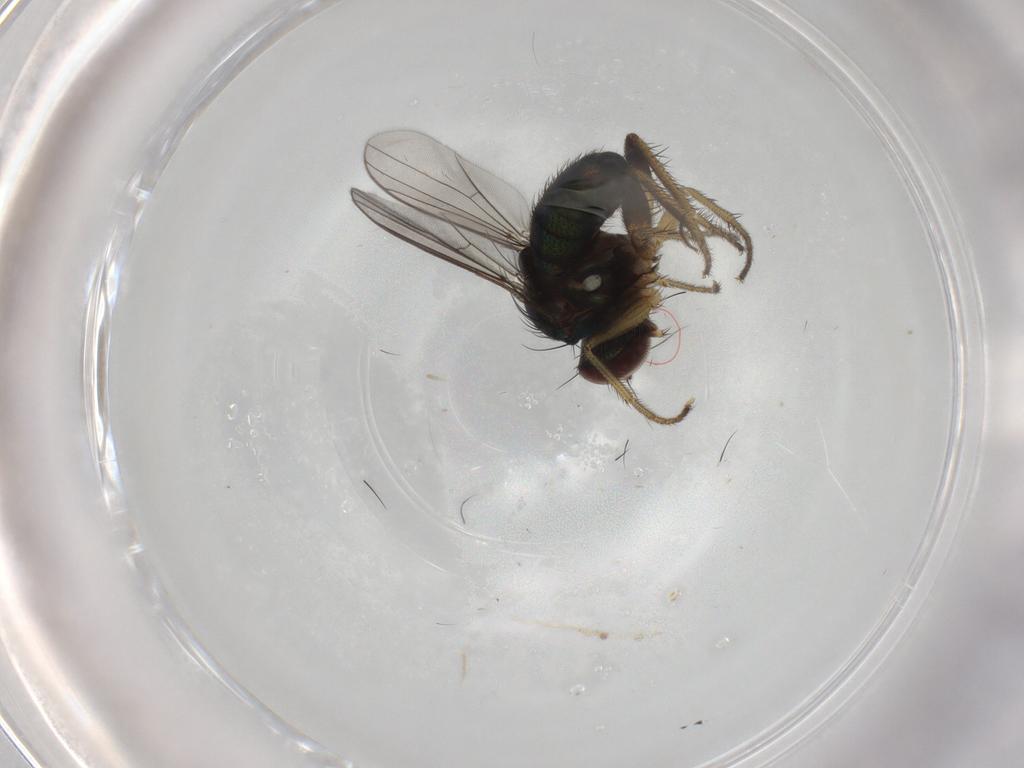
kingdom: Animalia
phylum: Arthropoda
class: Insecta
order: Diptera
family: Dolichopodidae
